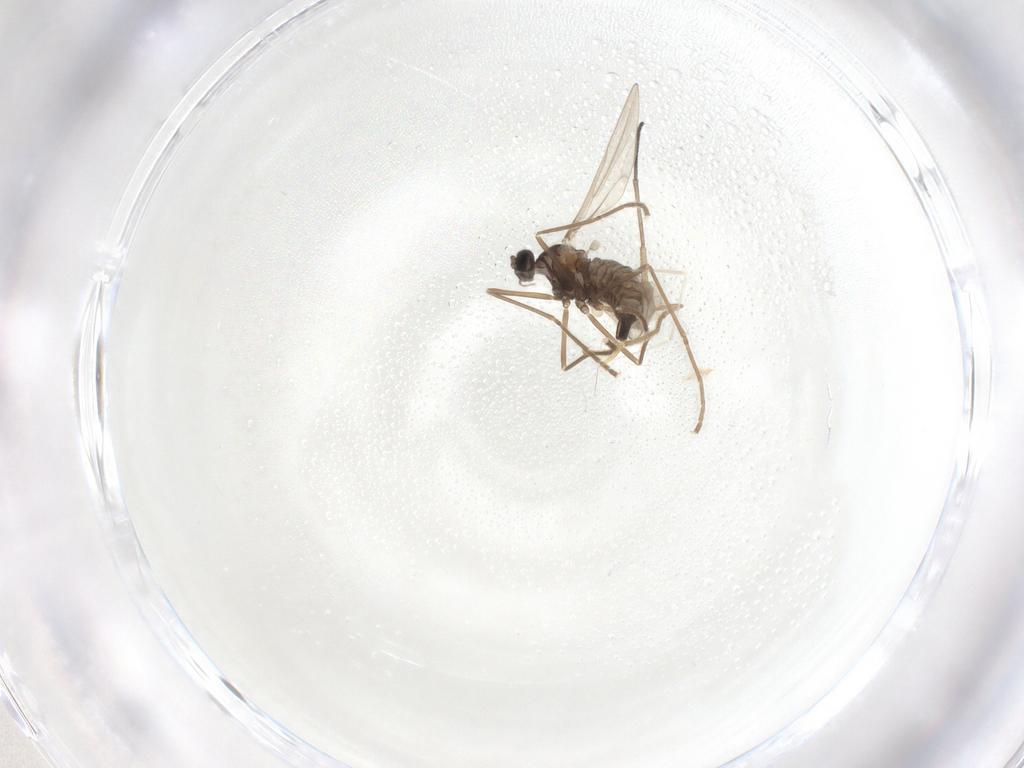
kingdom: Animalia
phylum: Arthropoda
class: Insecta
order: Diptera
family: Cecidomyiidae
